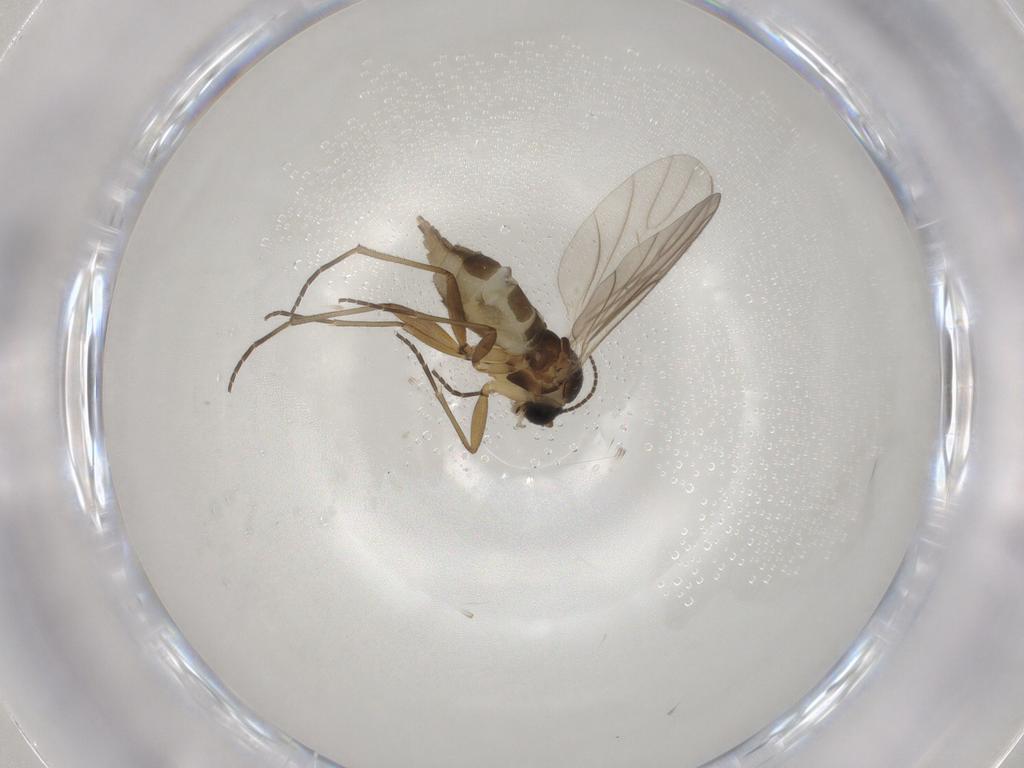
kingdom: Animalia
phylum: Arthropoda
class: Insecta
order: Diptera
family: Sciaridae
